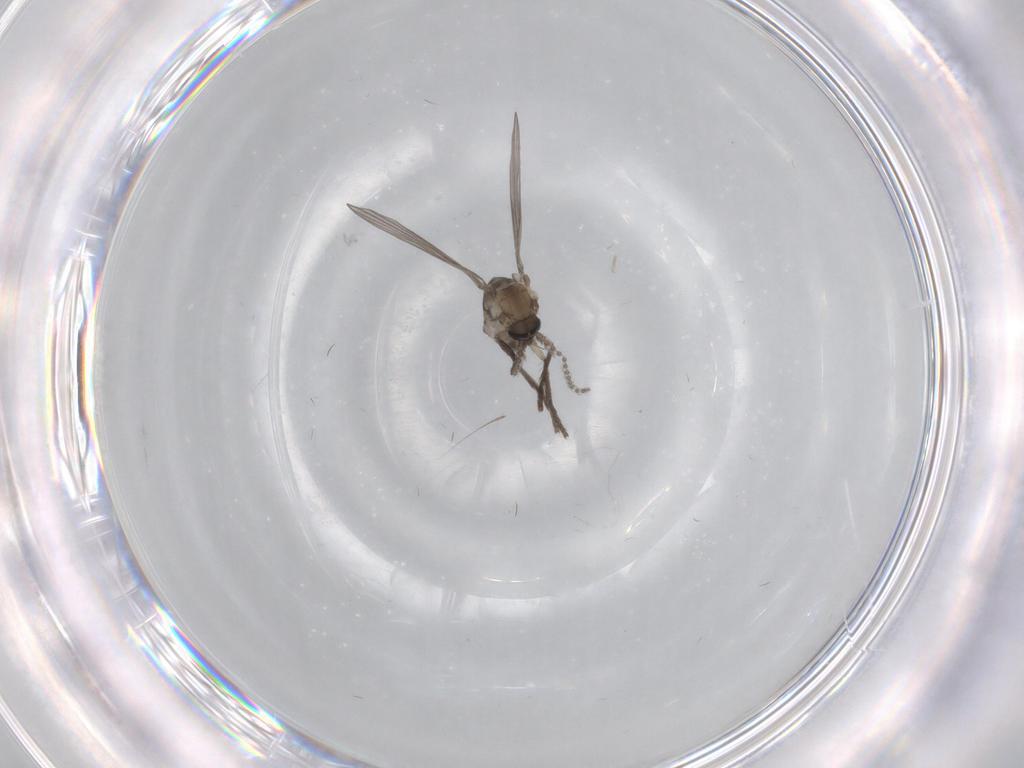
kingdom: Animalia
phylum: Arthropoda
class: Insecta
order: Diptera
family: Psychodidae
